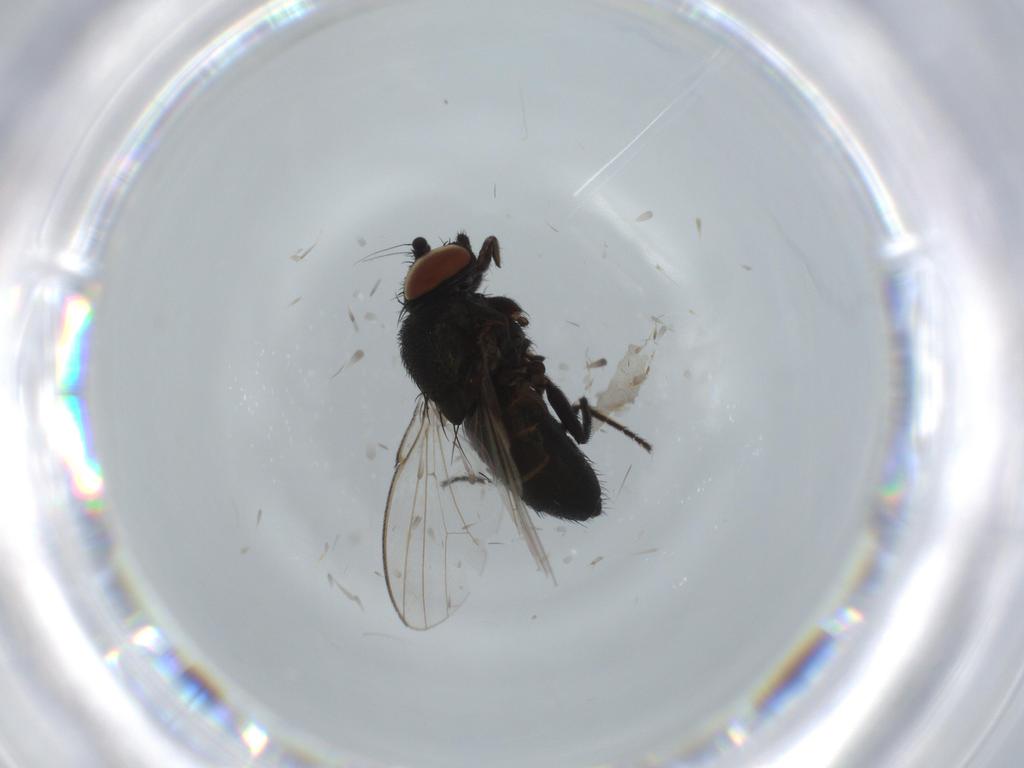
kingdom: Animalia
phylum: Arthropoda
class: Insecta
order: Diptera
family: Milichiidae
